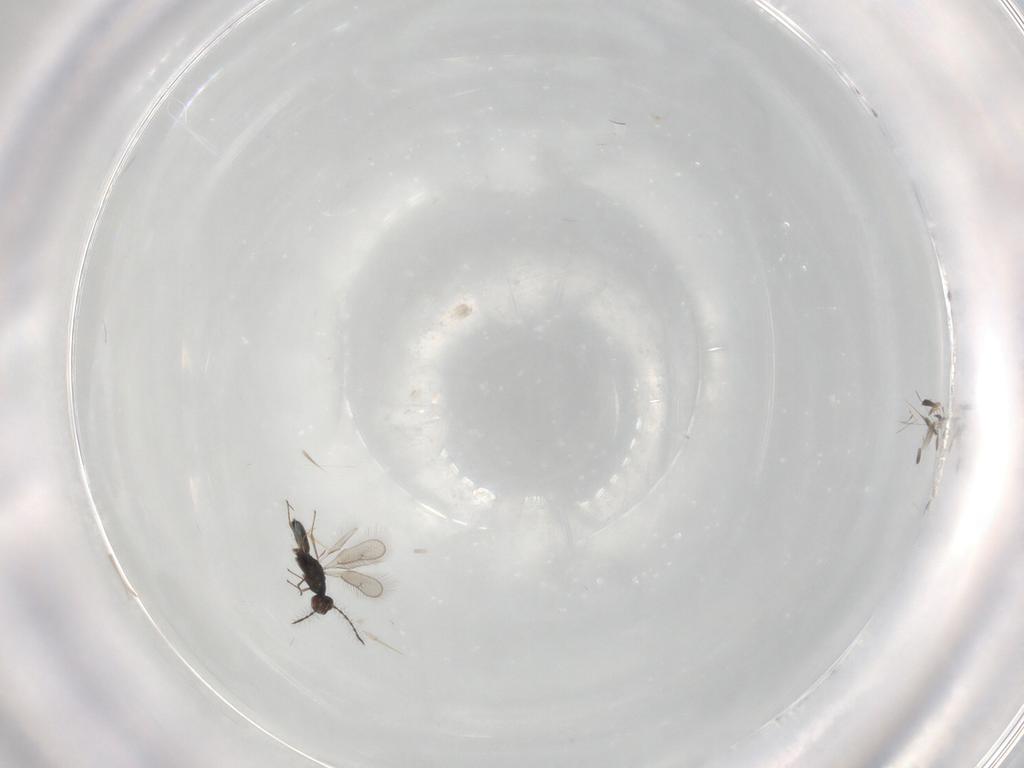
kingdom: Animalia
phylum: Arthropoda
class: Insecta
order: Hymenoptera
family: Pteromalidae
